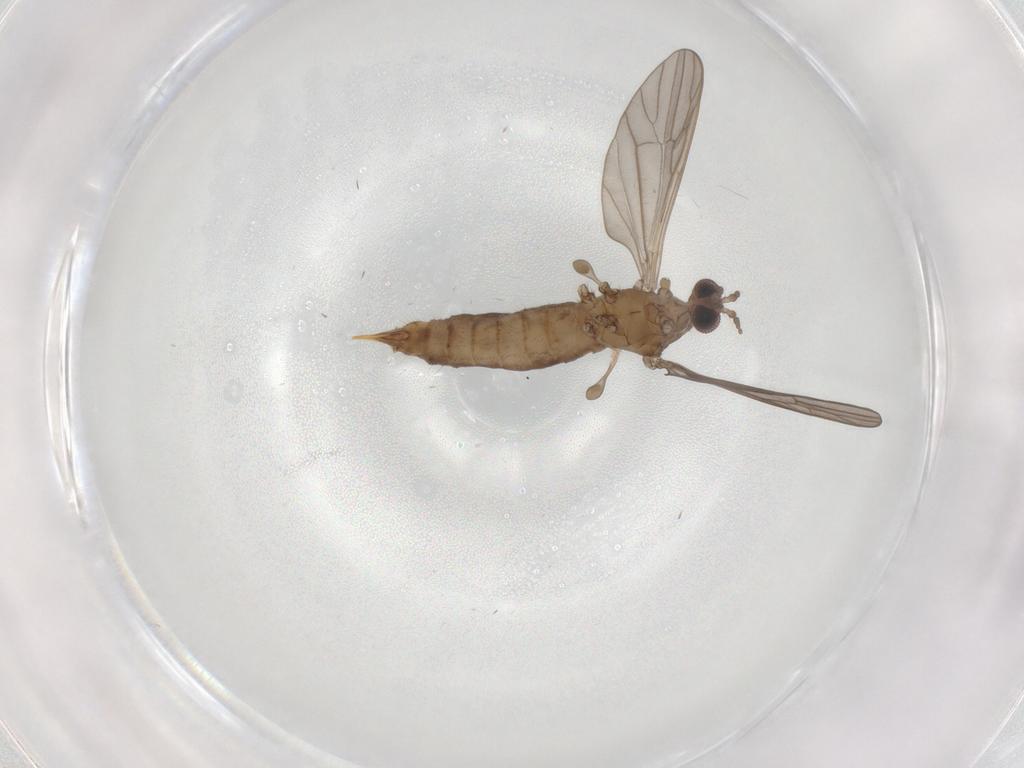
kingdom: Animalia
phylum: Arthropoda
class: Insecta
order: Diptera
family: Limoniidae
